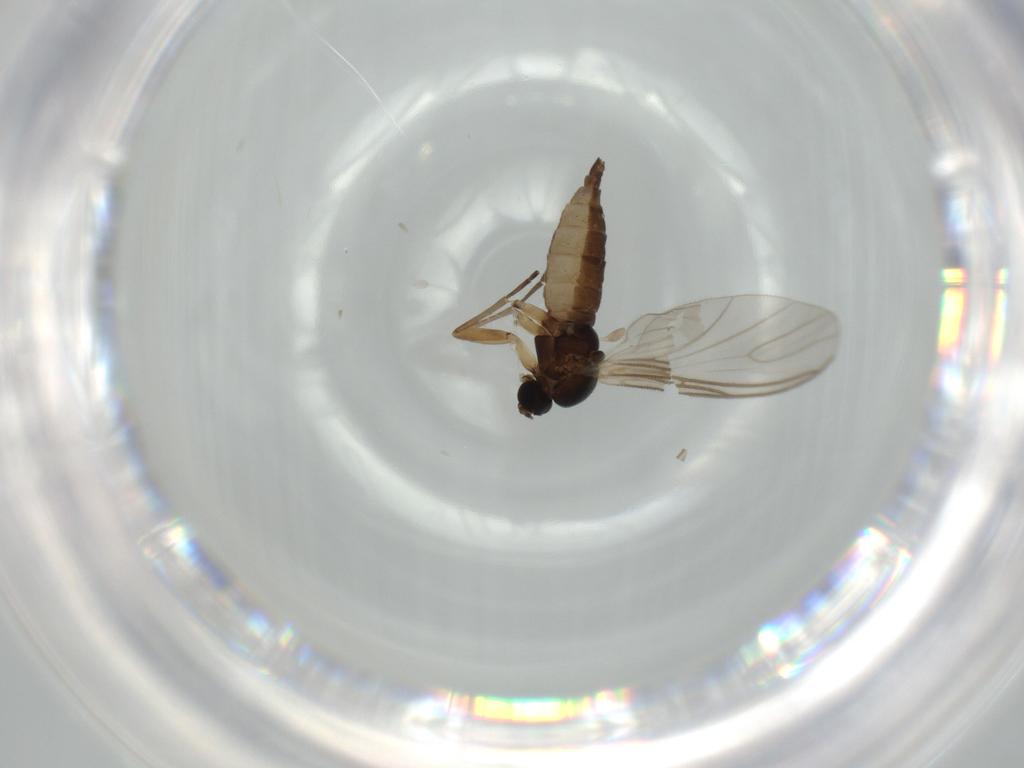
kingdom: Animalia
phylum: Arthropoda
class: Insecta
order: Diptera
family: Sciaridae
